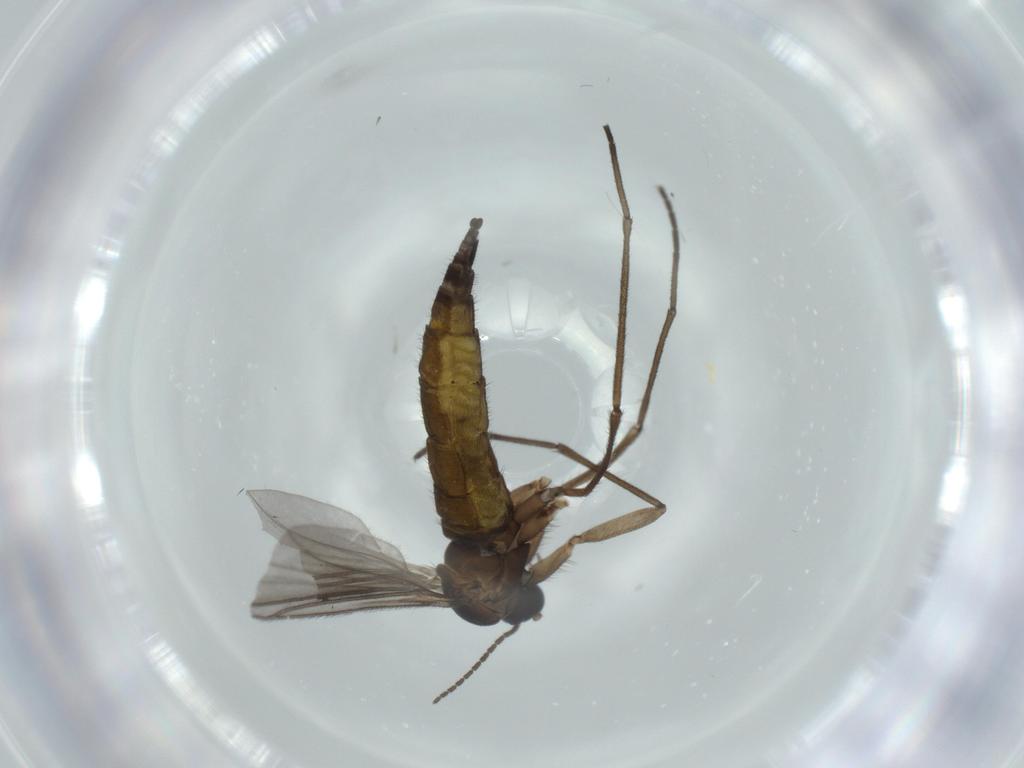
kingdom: Animalia
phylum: Arthropoda
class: Insecta
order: Diptera
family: Sciaridae
